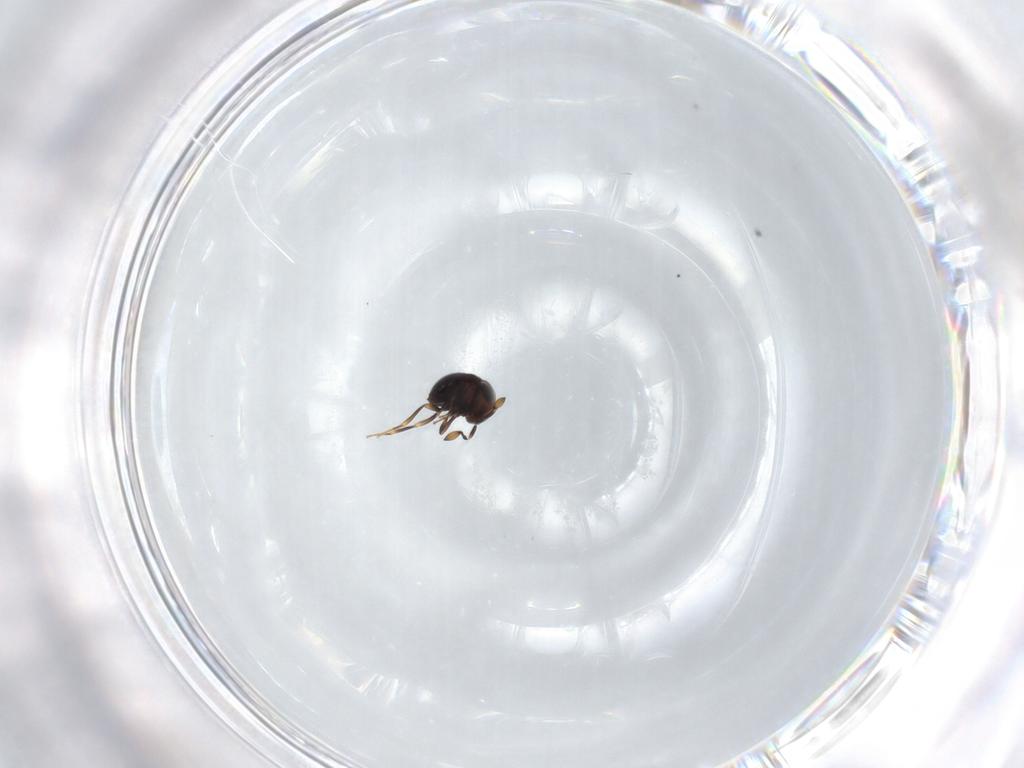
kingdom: Animalia
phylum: Arthropoda
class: Insecta
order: Hymenoptera
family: Scelionidae
